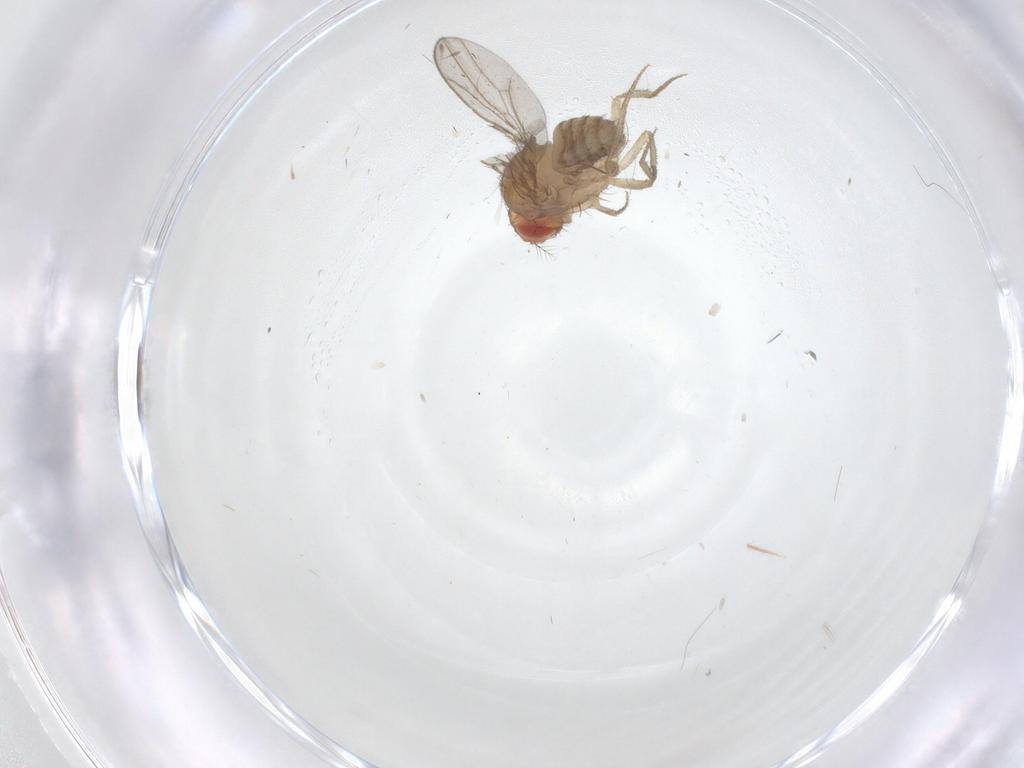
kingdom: Animalia
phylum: Arthropoda
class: Insecta
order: Diptera
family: Drosophilidae
